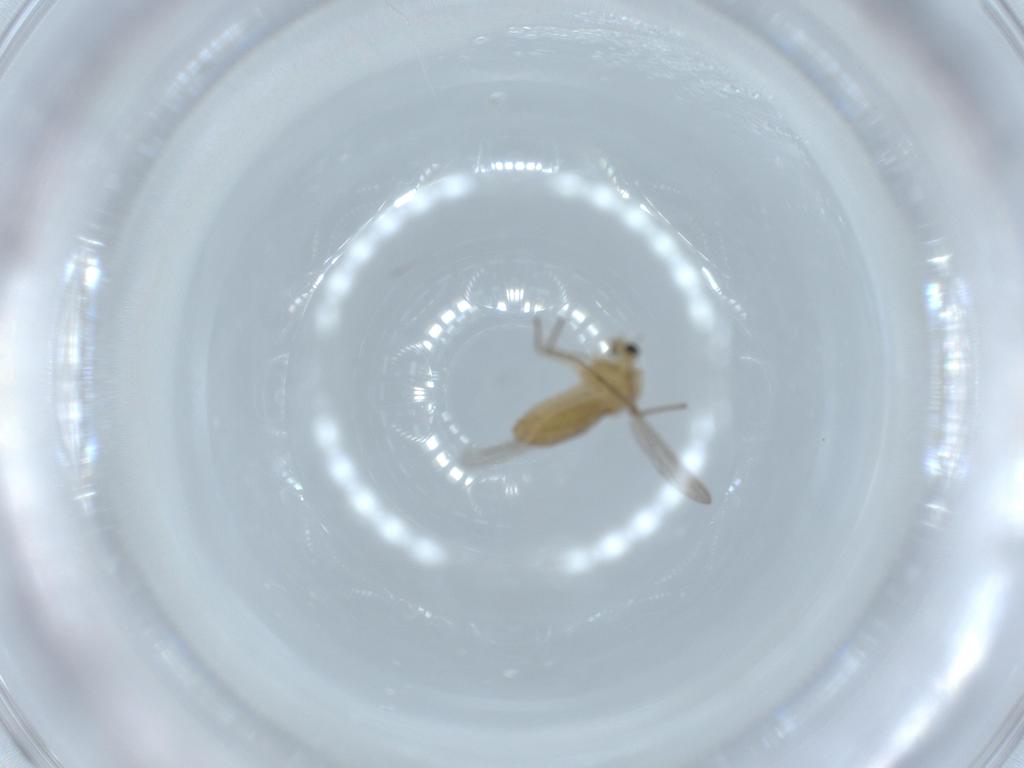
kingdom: Animalia
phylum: Arthropoda
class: Insecta
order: Diptera
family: Chironomidae
